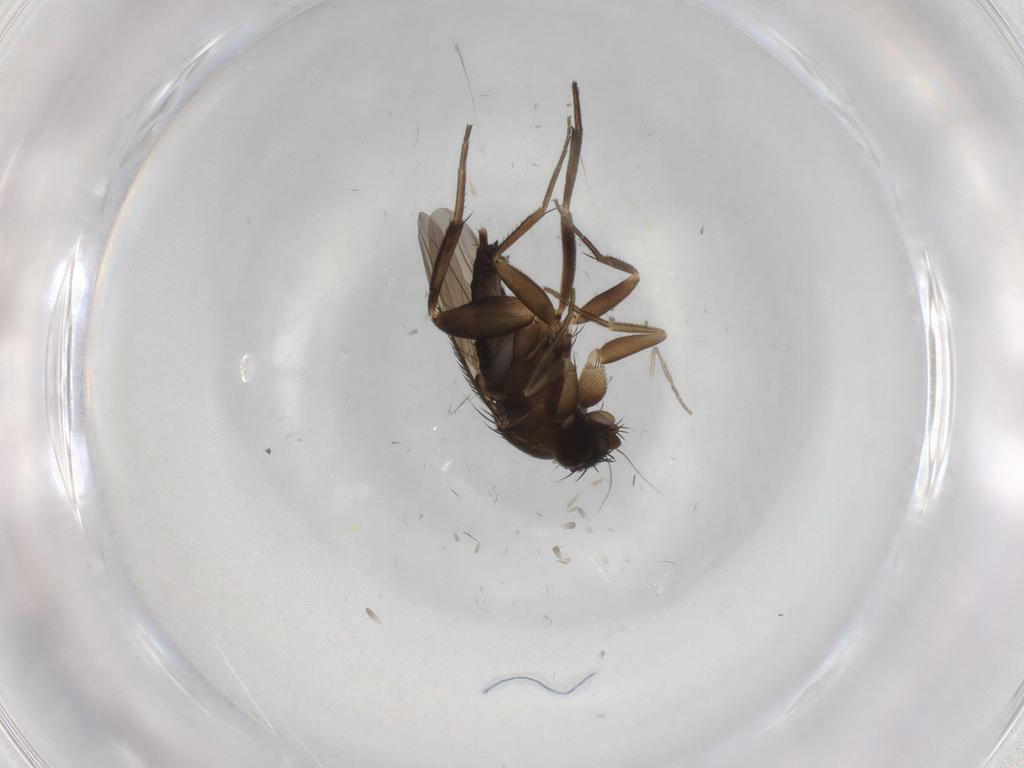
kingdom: Animalia
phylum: Arthropoda
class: Insecta
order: Diptera
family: Phoridae
